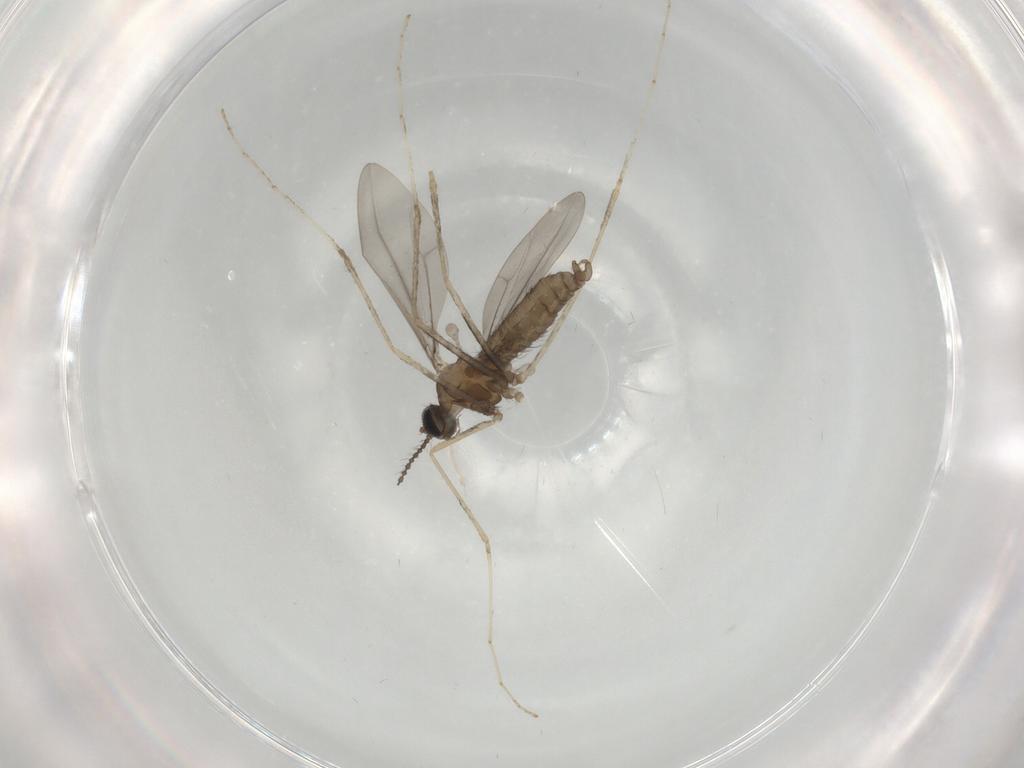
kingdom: Animalia
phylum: Arthropoda
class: Insecta
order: Diptera
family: Cecidomyiidae
